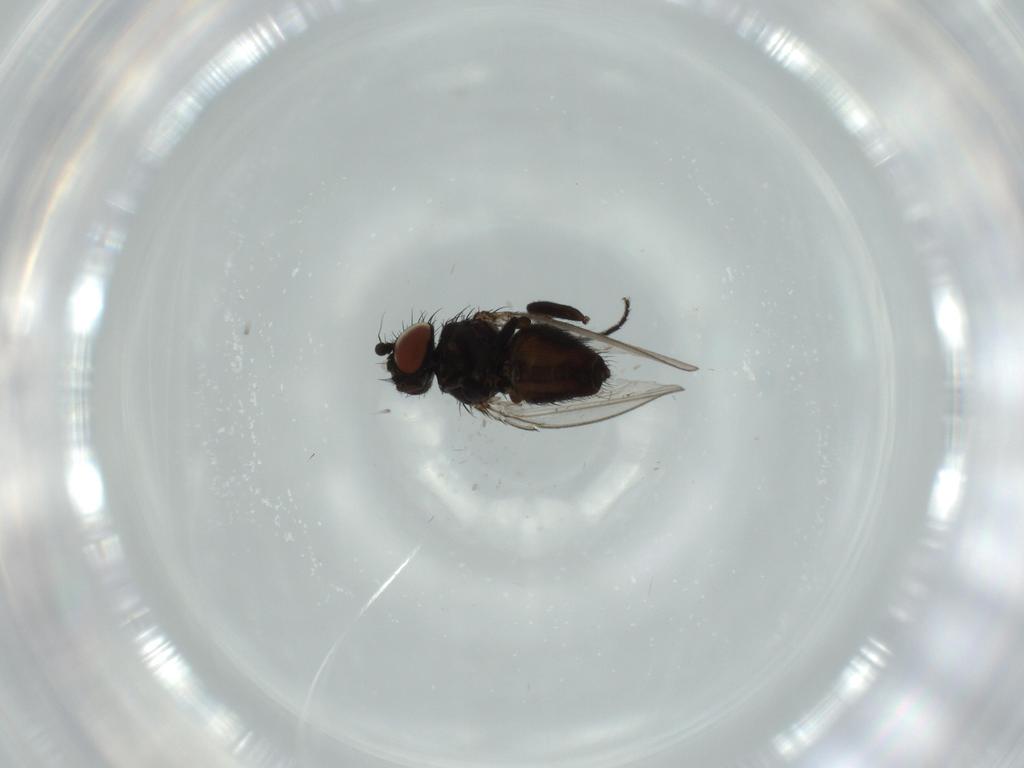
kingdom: Animalia
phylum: Arthropoda
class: Insecta
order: Diptera
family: Milichiidae
